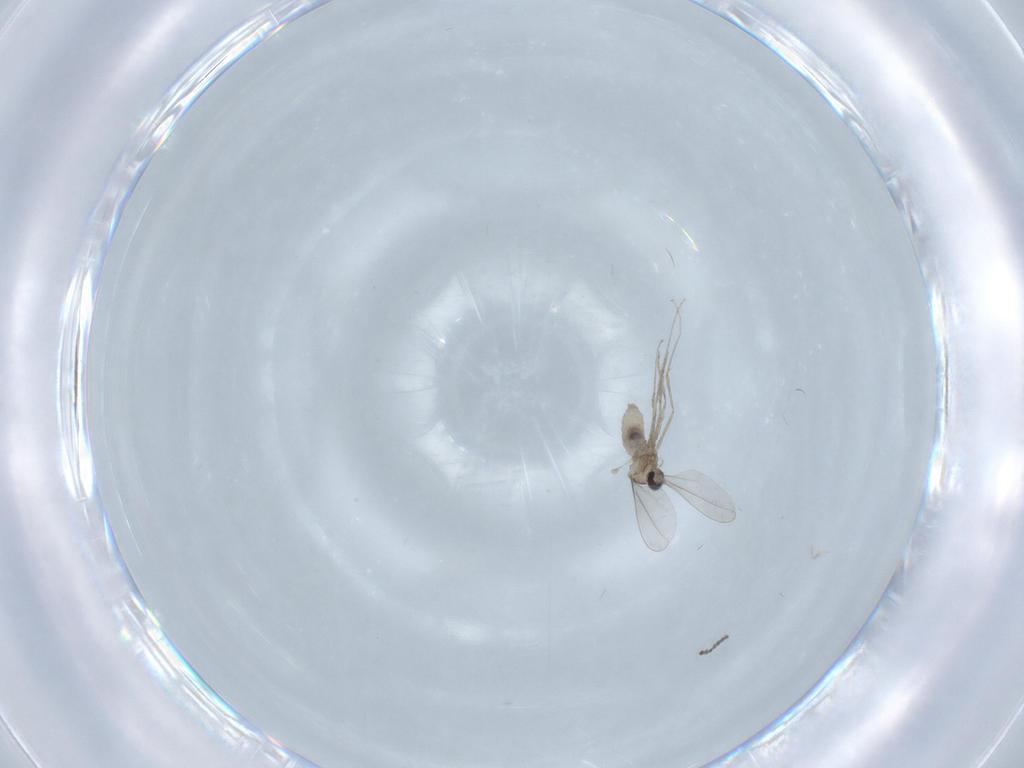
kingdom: Animalia
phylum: Arthropoda
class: Insecta
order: Diptera
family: Cecidomyiidae
